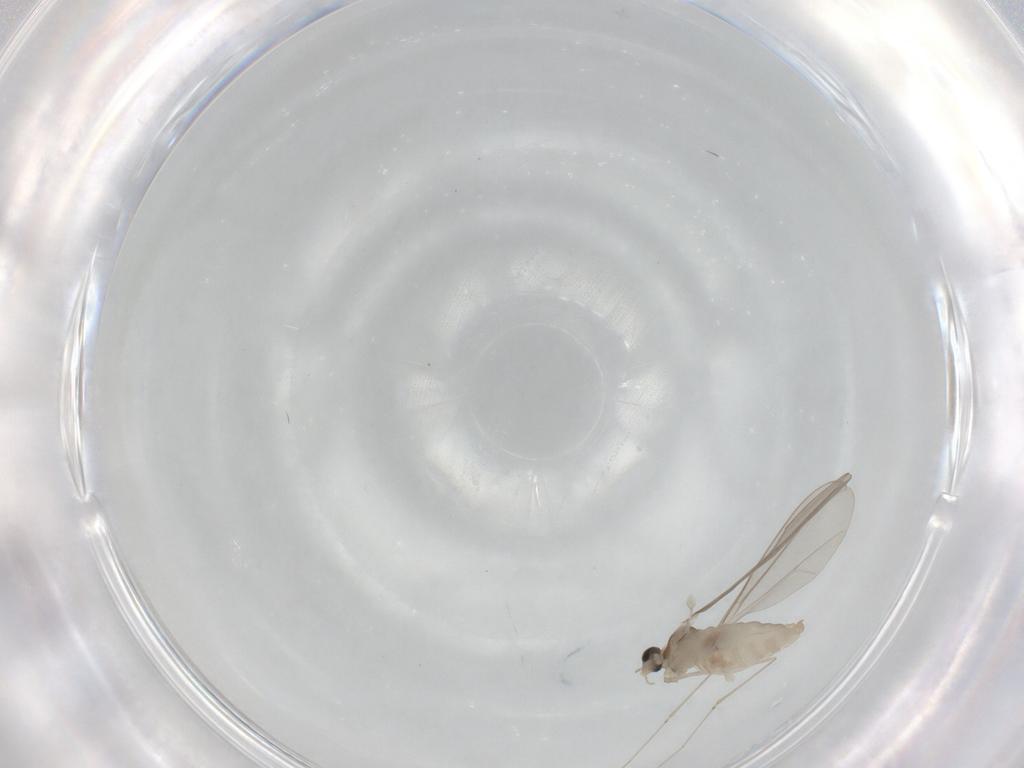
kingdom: Animalia
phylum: Arthropoda
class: Insecta
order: Diptera
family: Cecidomyiidae
